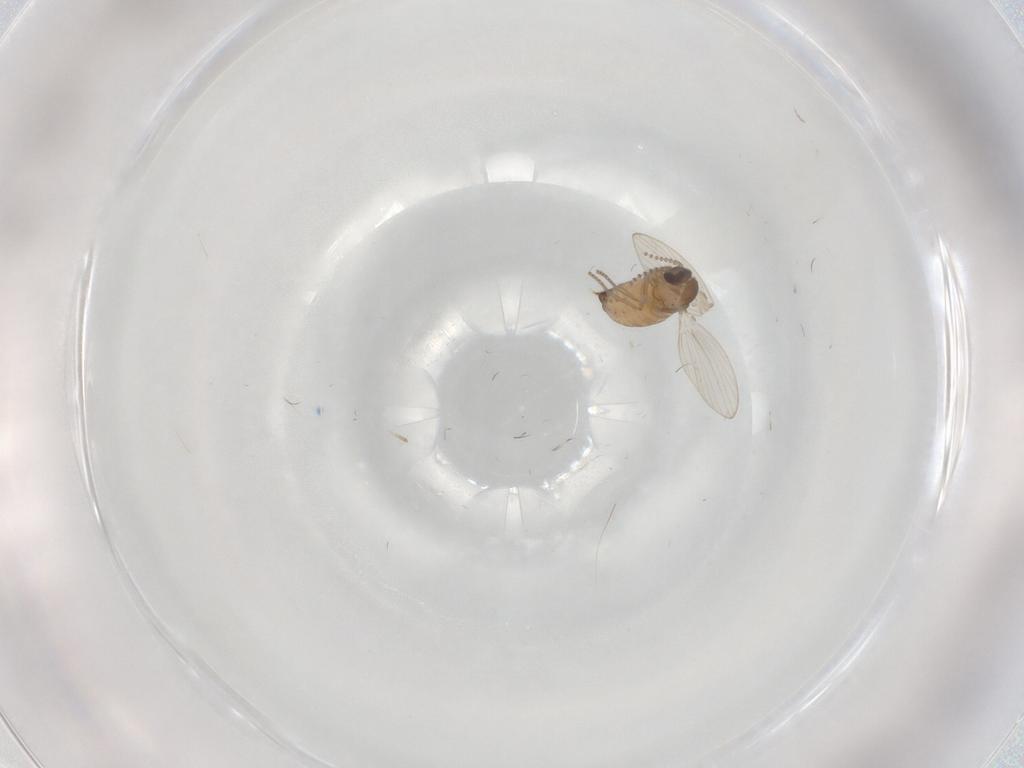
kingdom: Animalia
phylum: Arthropoda
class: Insecta
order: Diptera
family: Psychodidae
